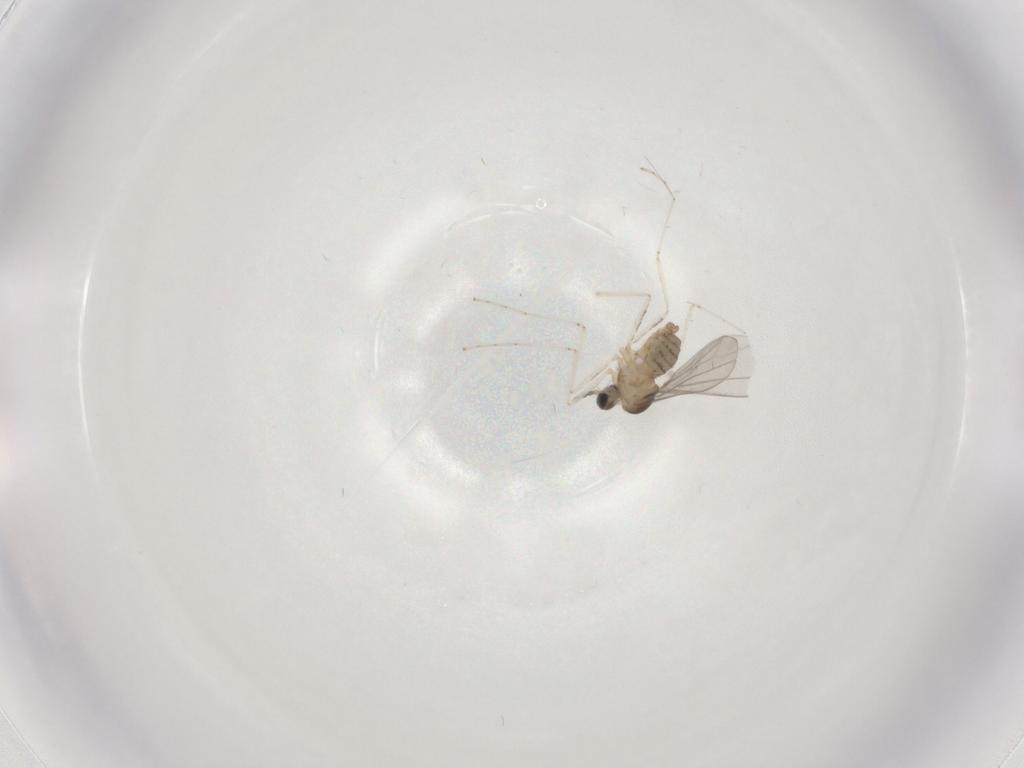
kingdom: Animalia
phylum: Arthropoda
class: Insecta
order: Diptera
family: Cecidomyiidae
